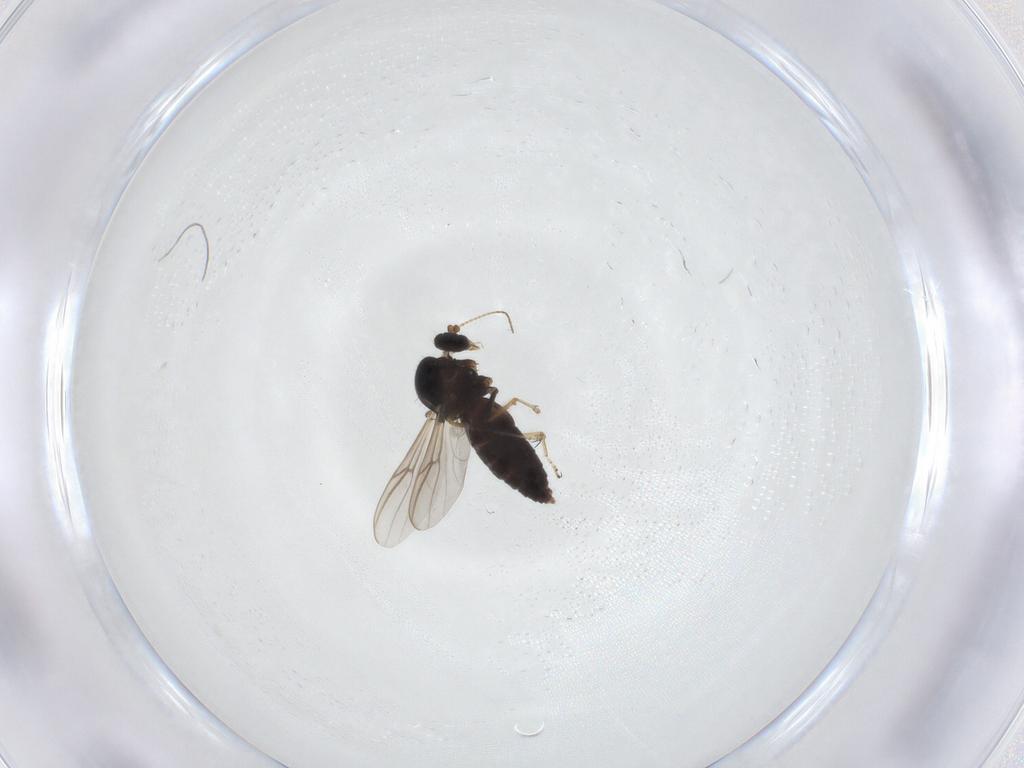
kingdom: Animalia
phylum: Arthropoda
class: Insecta
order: Diptera
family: Ceratopogonidae
